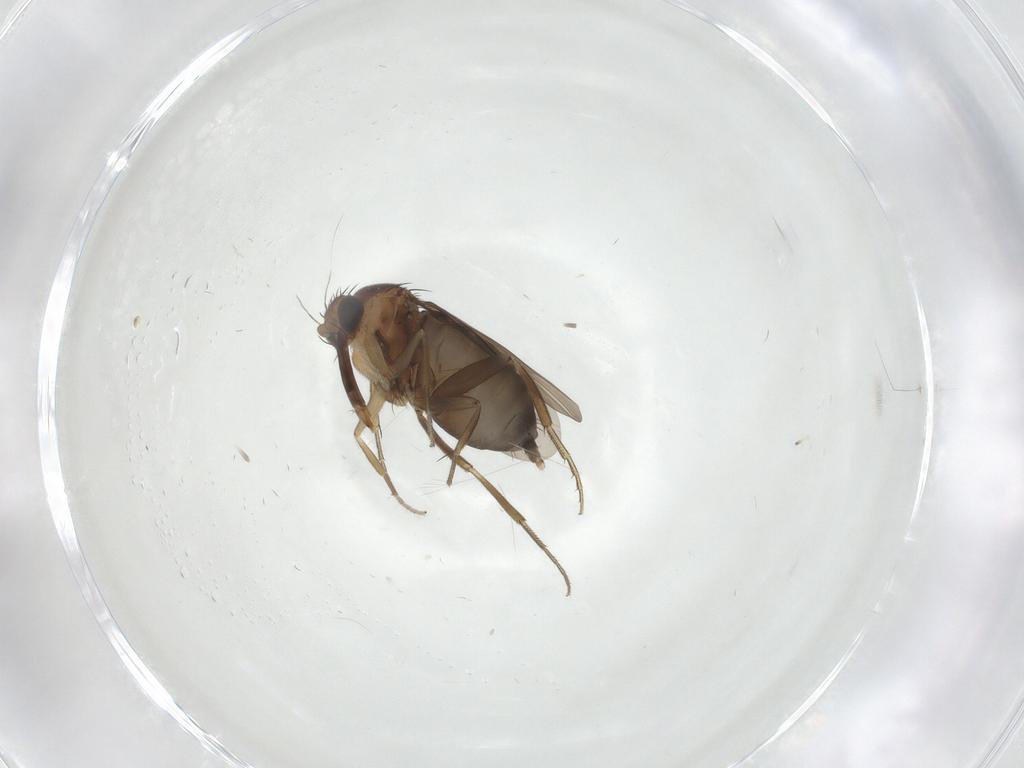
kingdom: Animalia
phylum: Arthropoda
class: Insecta
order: Diptera
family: Phoridae
